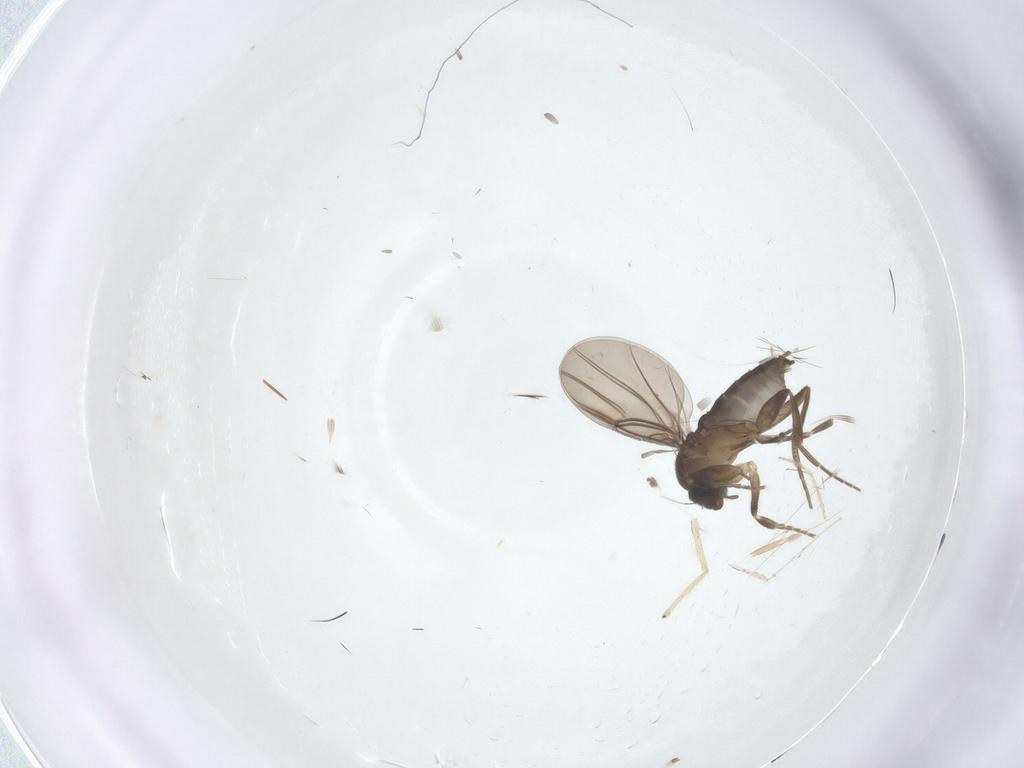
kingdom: Animalia
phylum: Arthropoda
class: Insecta
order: Diptera
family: Cecidomyiidae
